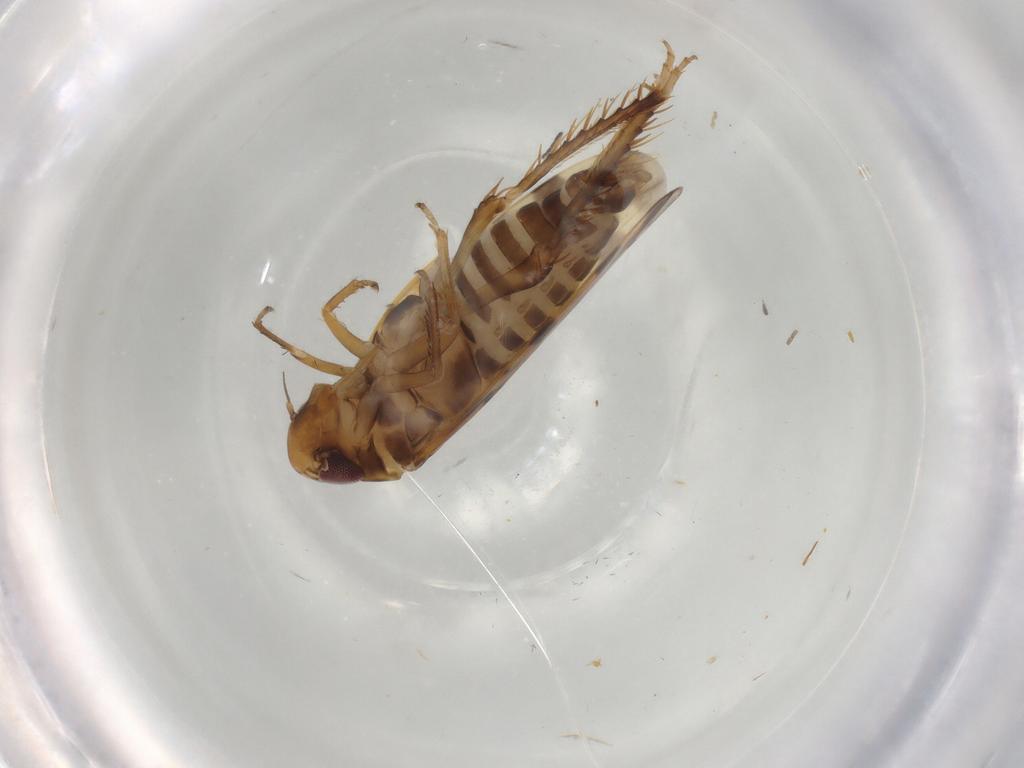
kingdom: Animalia
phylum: Arthropoda
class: Insecta
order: Hemiptera
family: Cicadellidae
